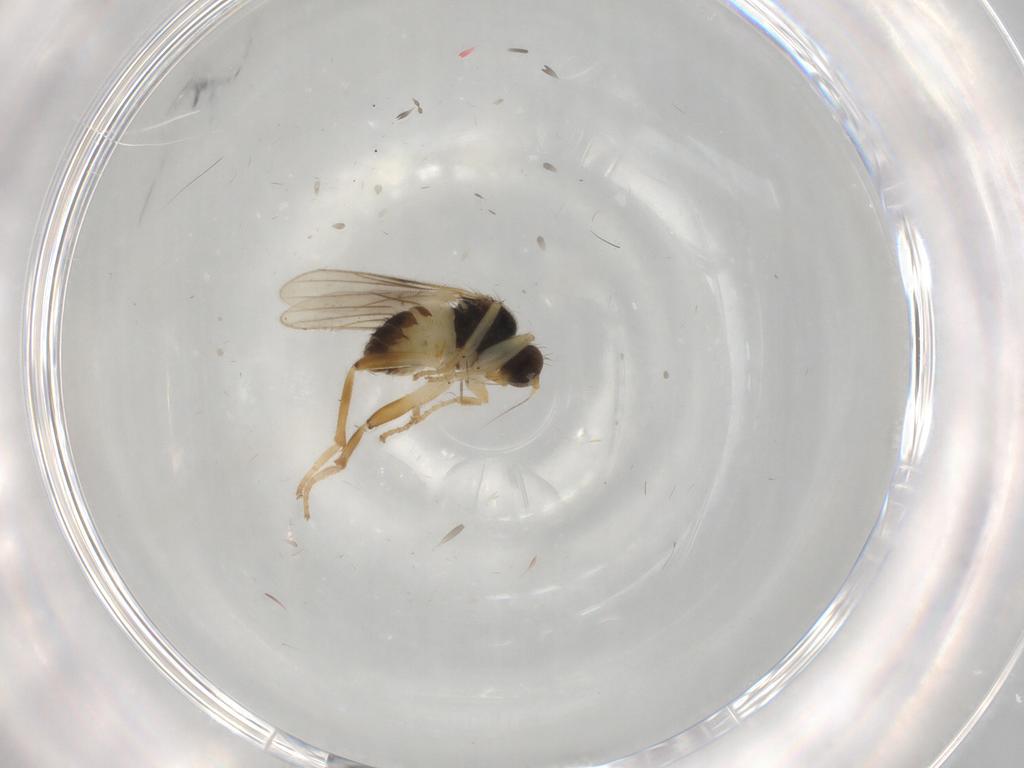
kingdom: Animalia
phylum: Arthropoda
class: Insecta
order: Diptera
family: Hybotidae
